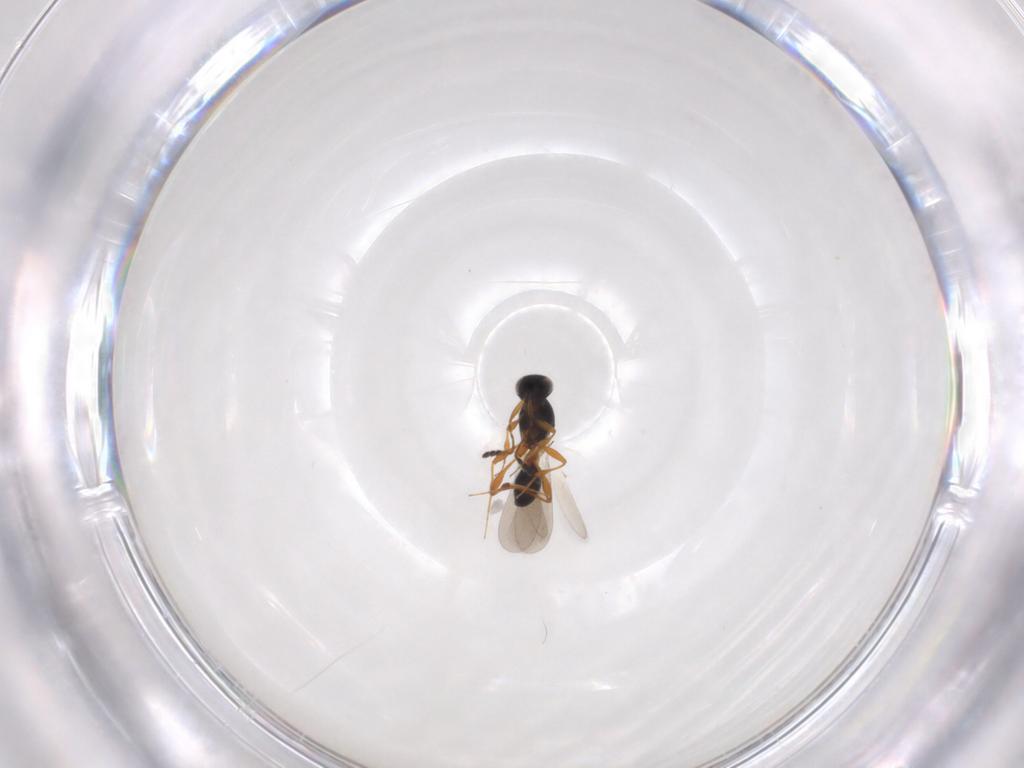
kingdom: Animalia
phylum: Arthropoda
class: Insecta
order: Hymenoptera
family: Platygastridae
